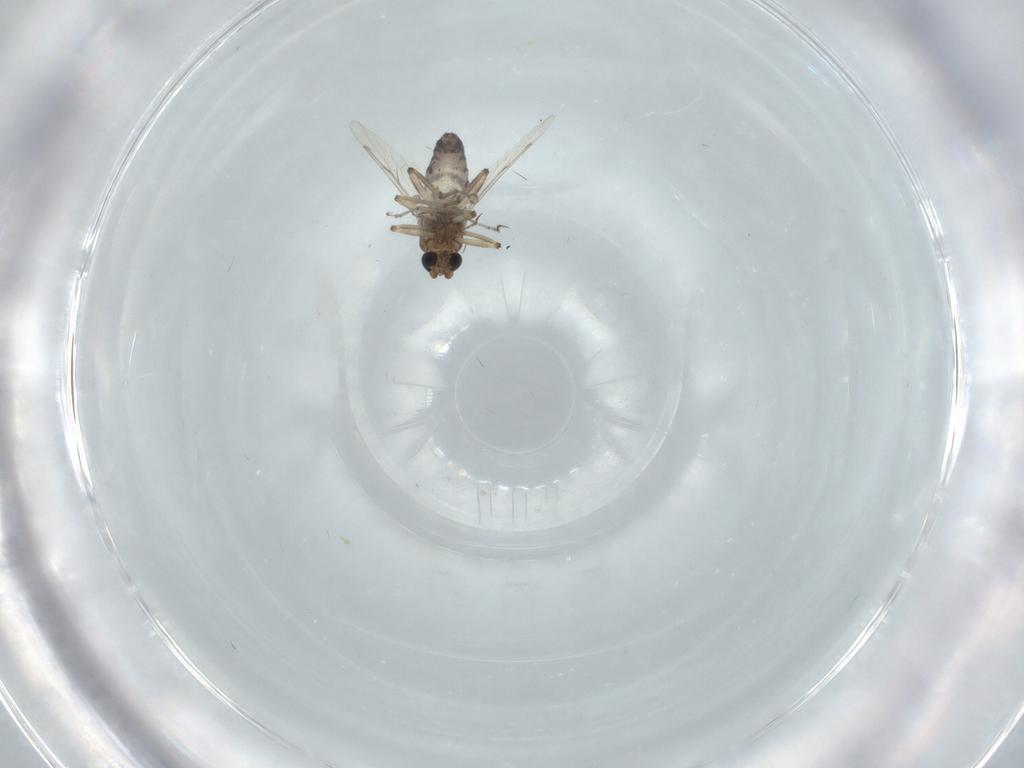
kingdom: Animalia
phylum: Arthropoda
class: Insecta
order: Diptera
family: Ceratopogonidae
